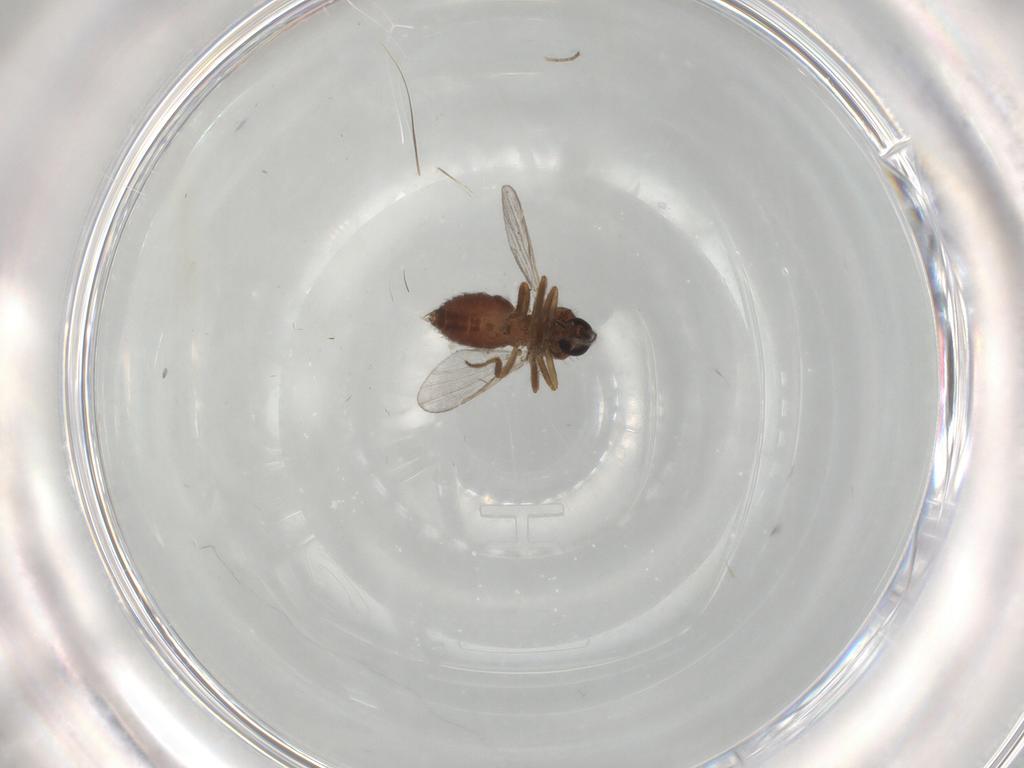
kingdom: Animalia
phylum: Arthropoda
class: Insecta
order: Diptera
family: Ceratopogonidae
